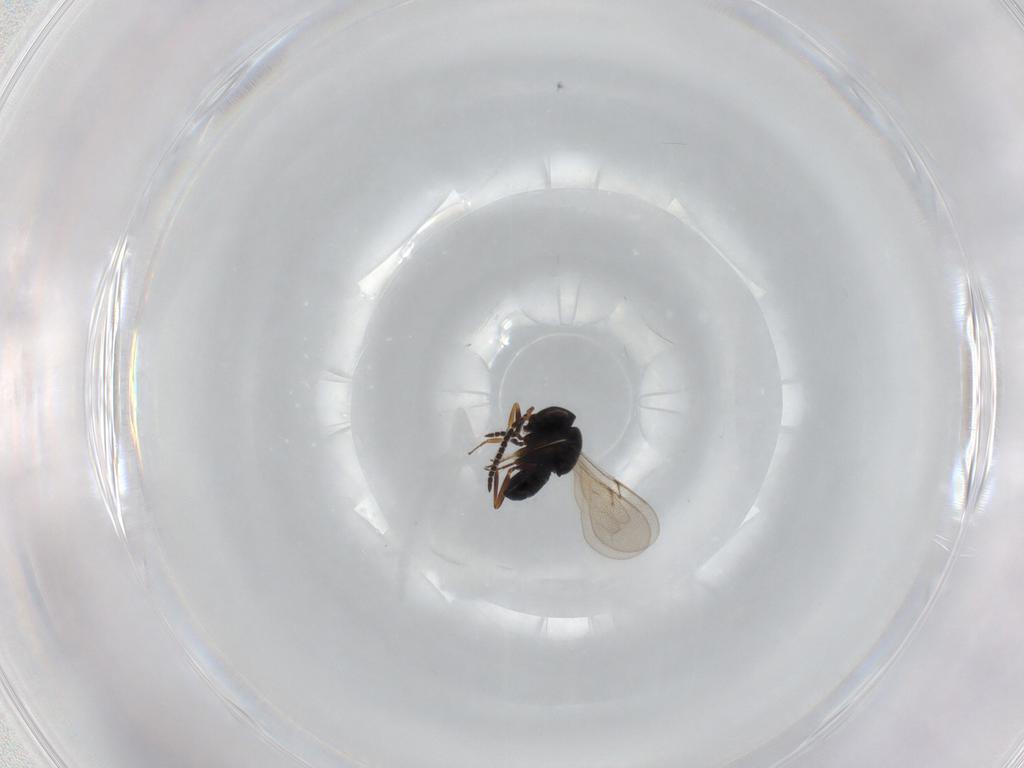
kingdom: Animalia
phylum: Arthropoda
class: Insecta
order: Hymenoptera
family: Scelionidae
